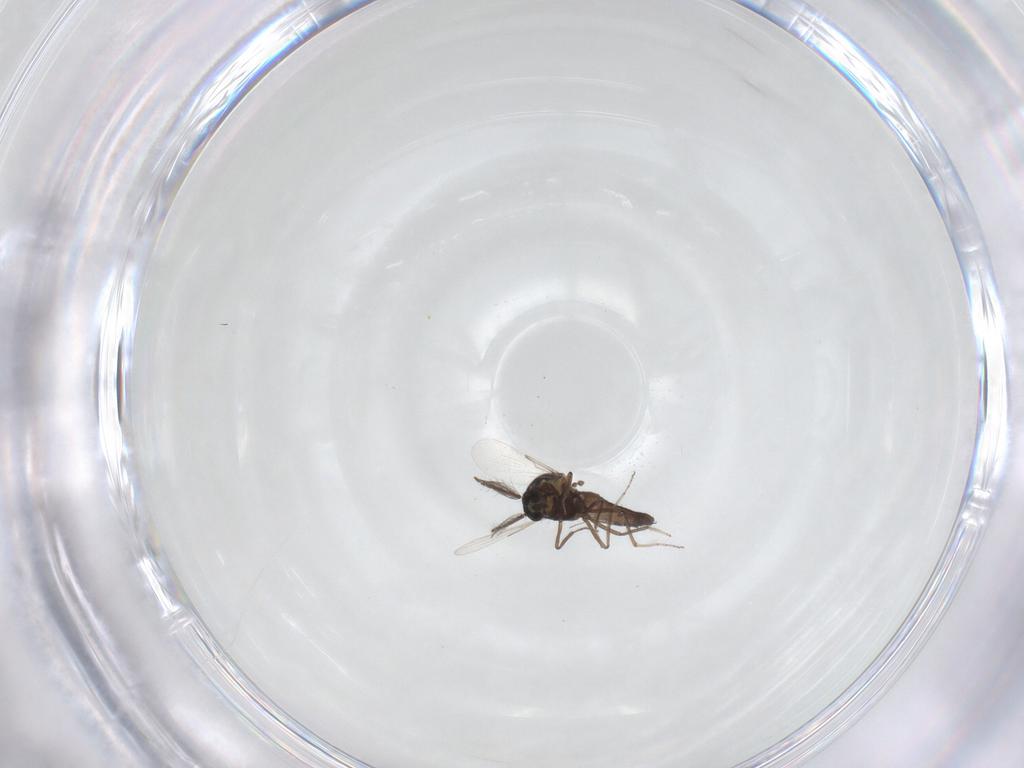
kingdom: Animalia
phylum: Arthropoda
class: Insecta
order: Diptera
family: Ceratopogonidae
